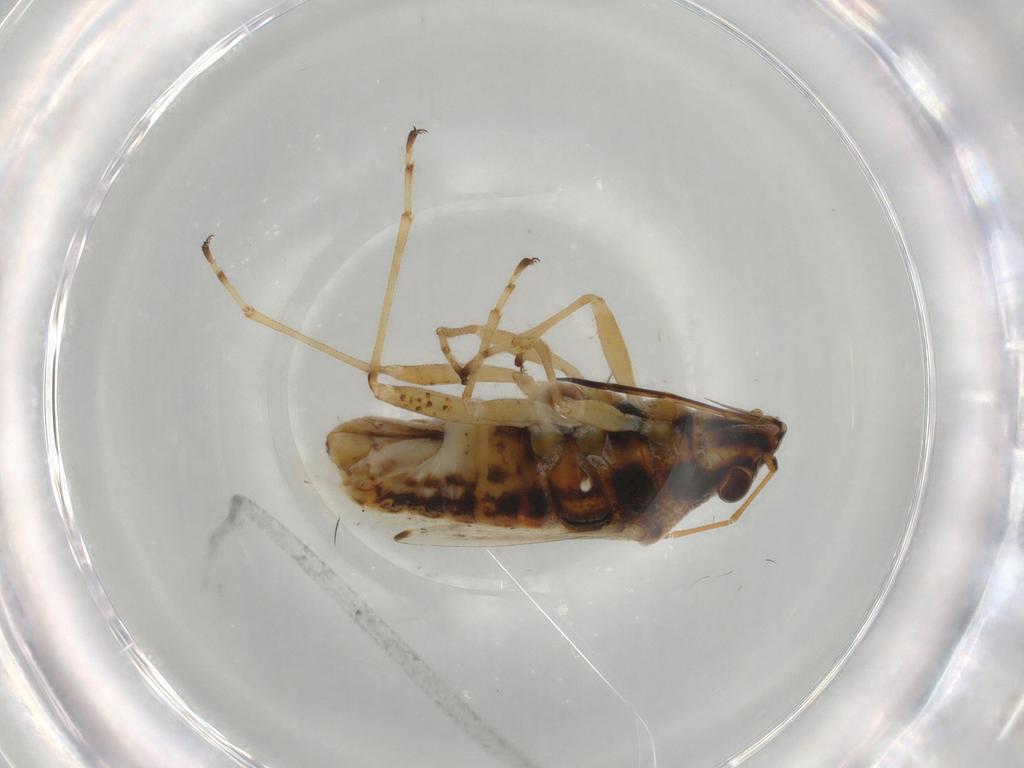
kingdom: Animalia
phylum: Arthropoda
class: Insecta
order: Hemiptera
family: Lygaeidae
